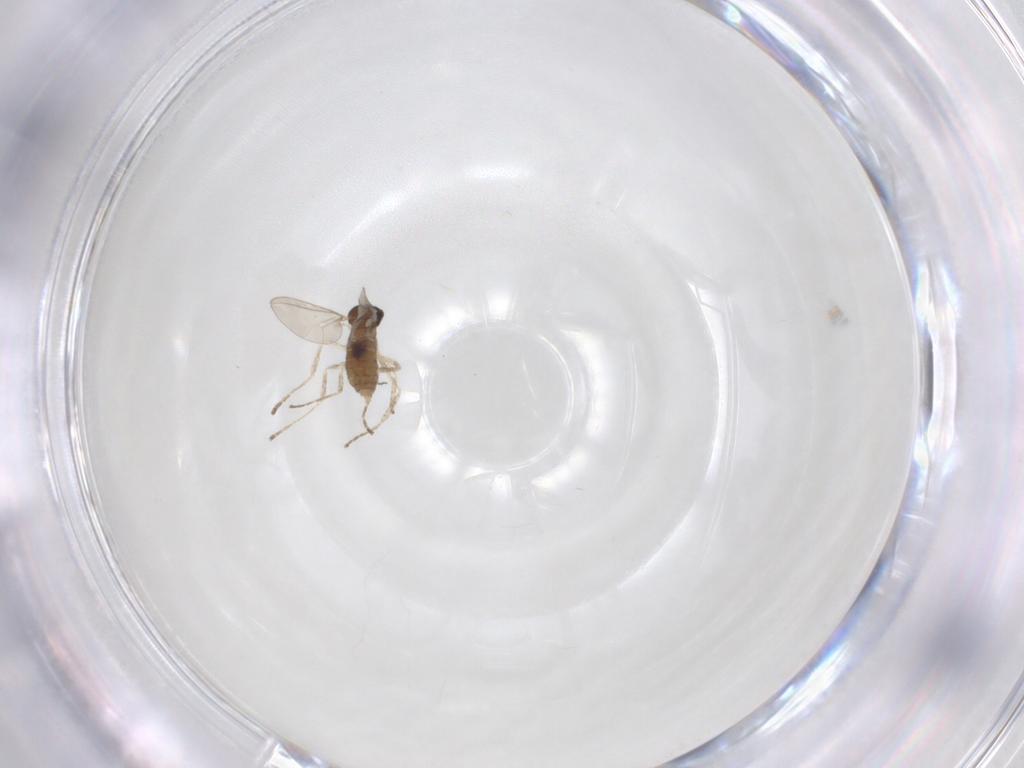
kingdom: Animalia
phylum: Arthropoda
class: Insecta
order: Diptera
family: Cecidomyiidae
